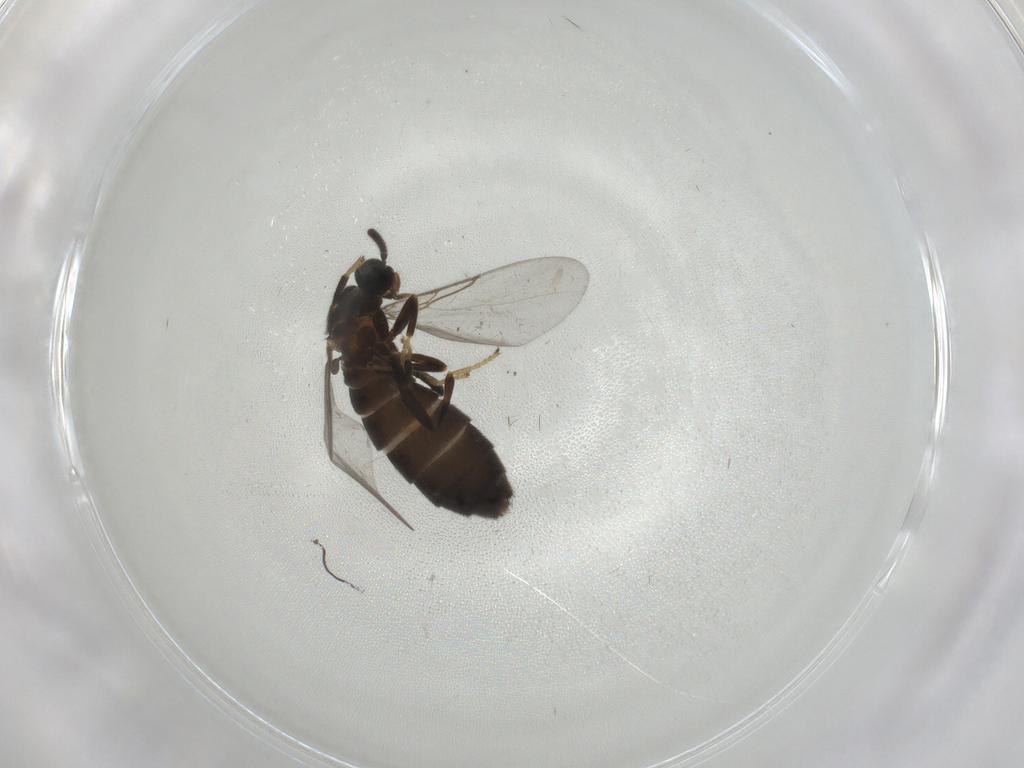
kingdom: Animalia
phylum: Arthropoda
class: Insecta
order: Diptera
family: Scatopsidae
